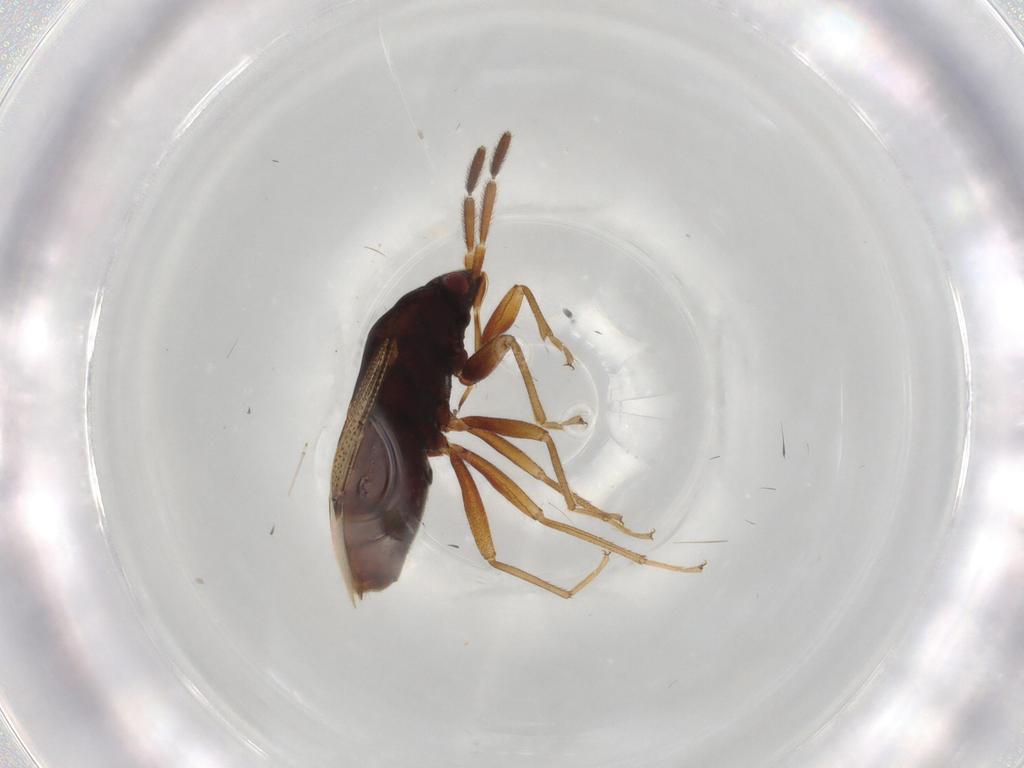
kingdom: Animalia
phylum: Arthropoda
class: Insecta
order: Hemiptera
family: Rhyparochromidae
